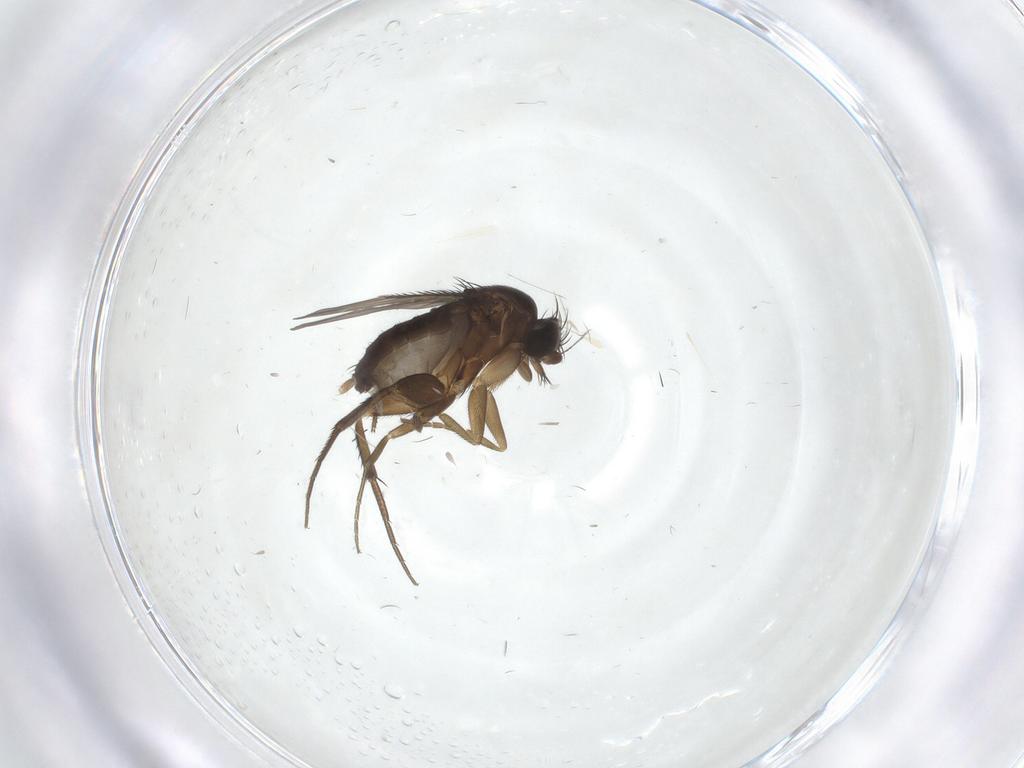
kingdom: Animalia
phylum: Arthropoda
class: Insecta
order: Diptera
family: Phoridae
